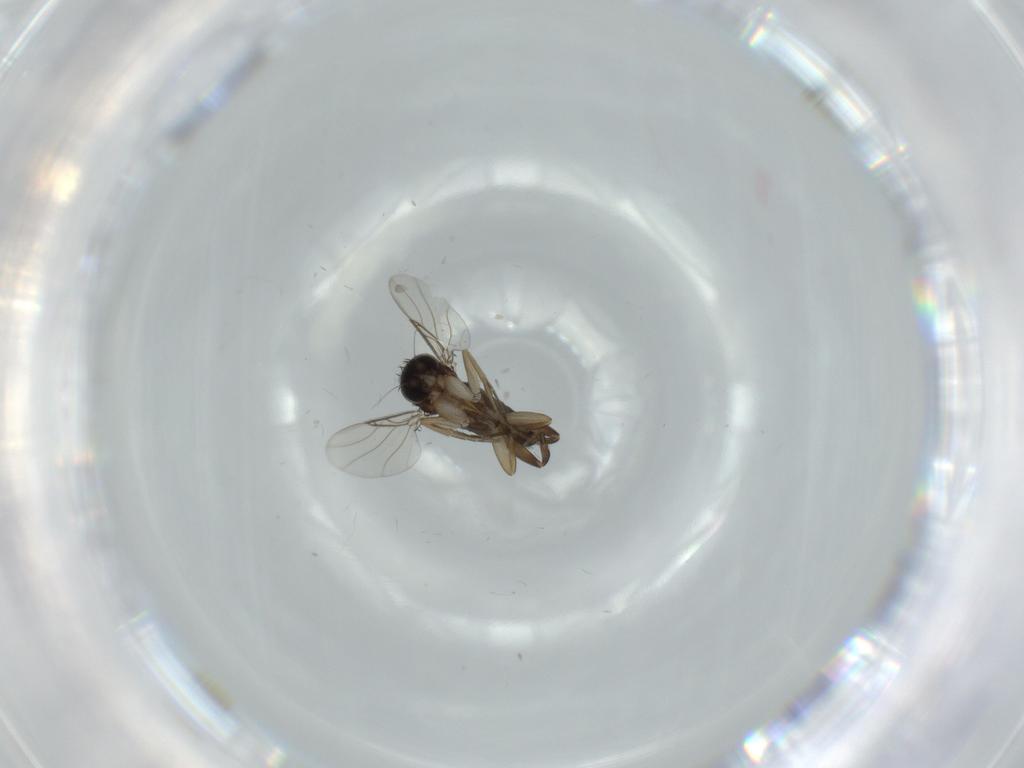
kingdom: Animalia
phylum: Arthropoda
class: Insecta
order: Diptera
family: Phoridae
